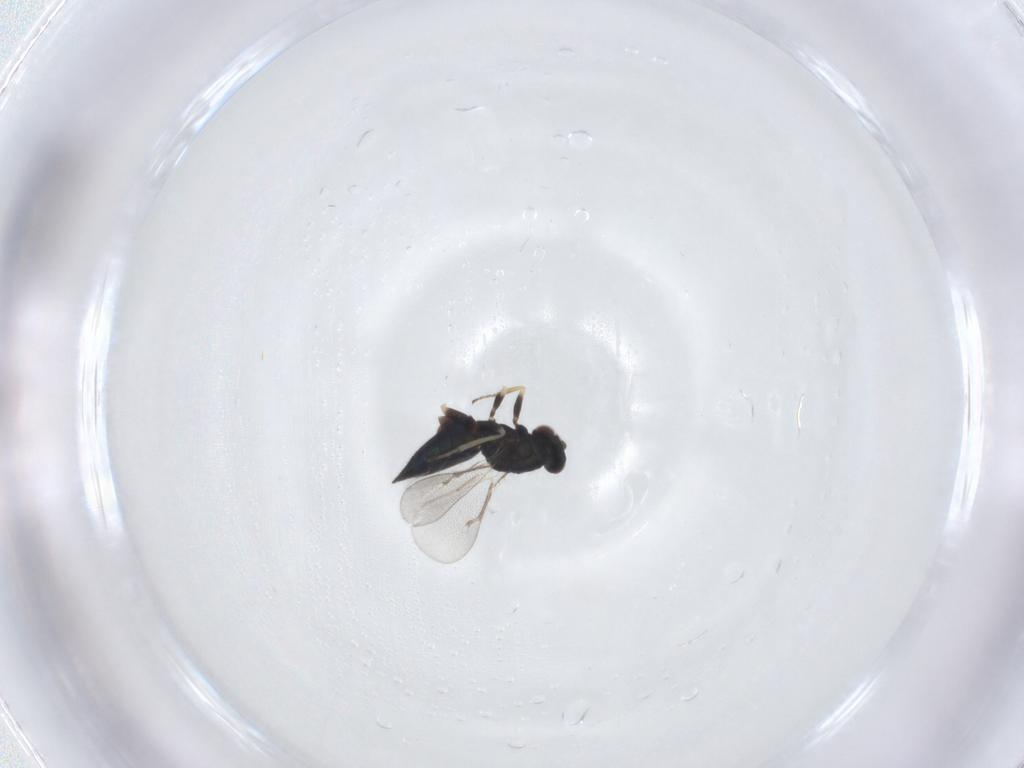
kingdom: Animalia
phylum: Arthropoda
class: Insecta
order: Hymenoptera
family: Eulophidae
